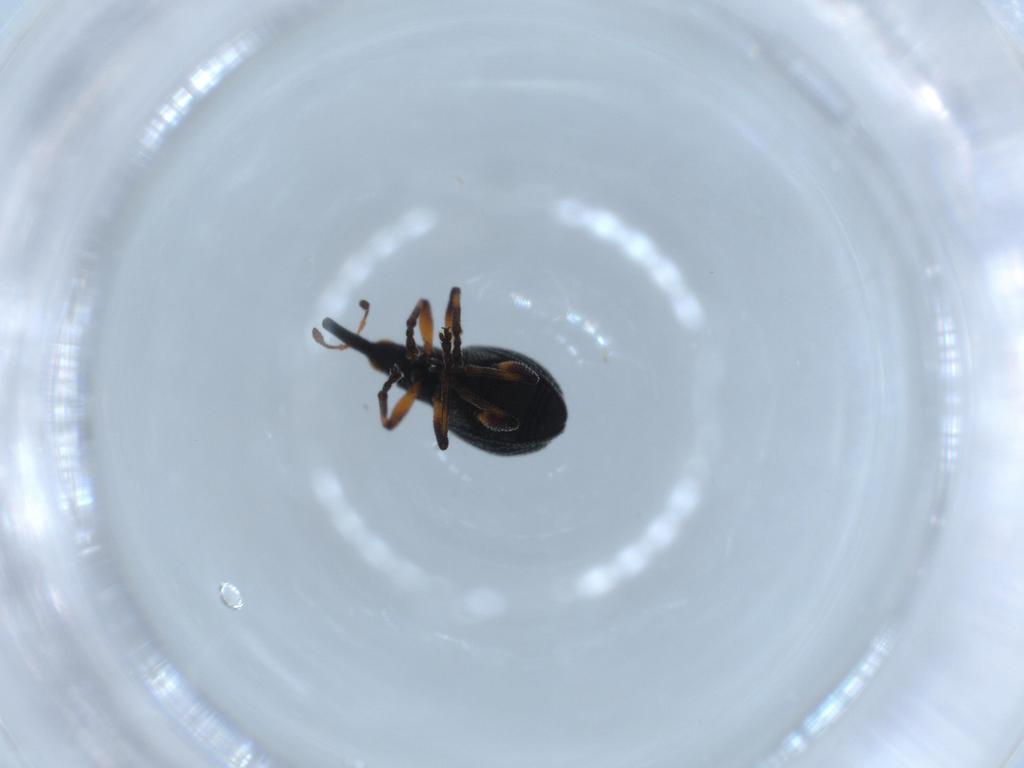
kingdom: Animalia
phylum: Arthropoda
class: Insecta
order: Coleoptera
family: Brentidae
